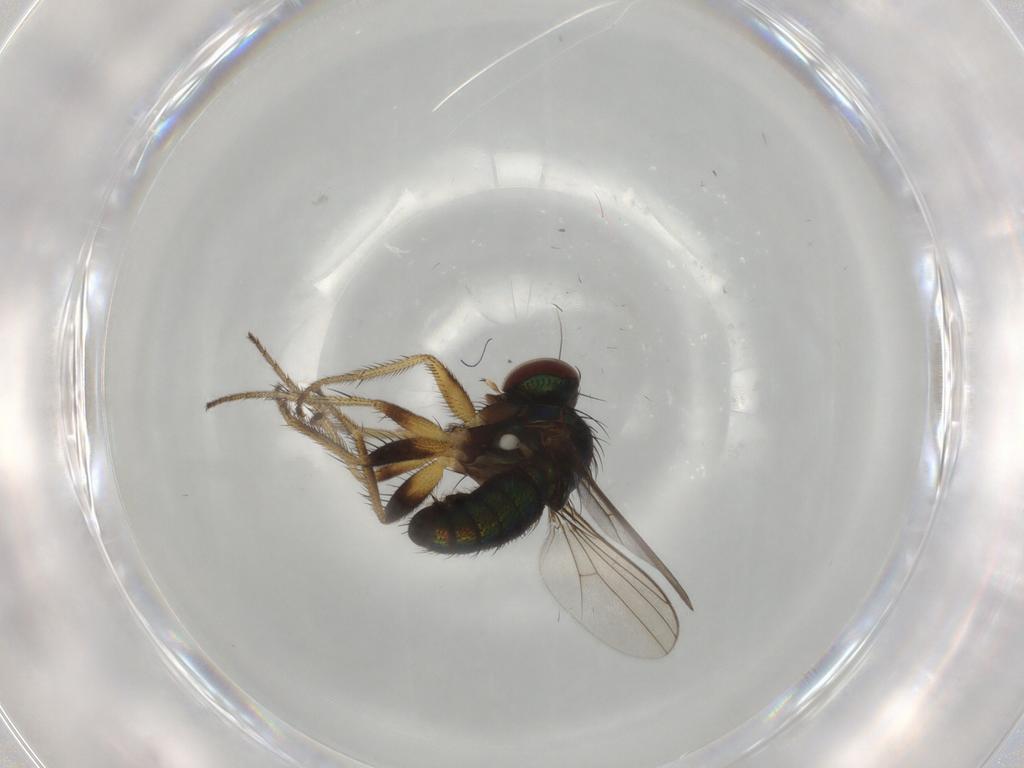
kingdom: Animalia
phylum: Arthropoda
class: Insecta
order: Diptera
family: Dolichopodidae
